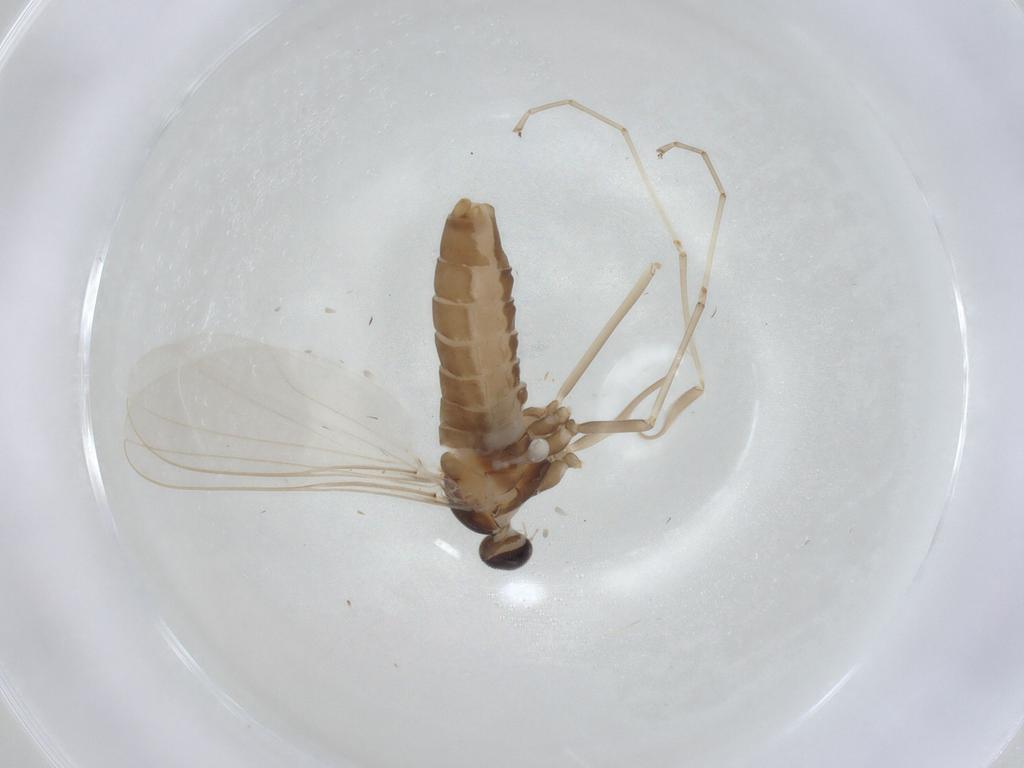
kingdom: Animalia
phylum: Arthropoda
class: Insecta
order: Diptera
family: Cecidomyiidae
